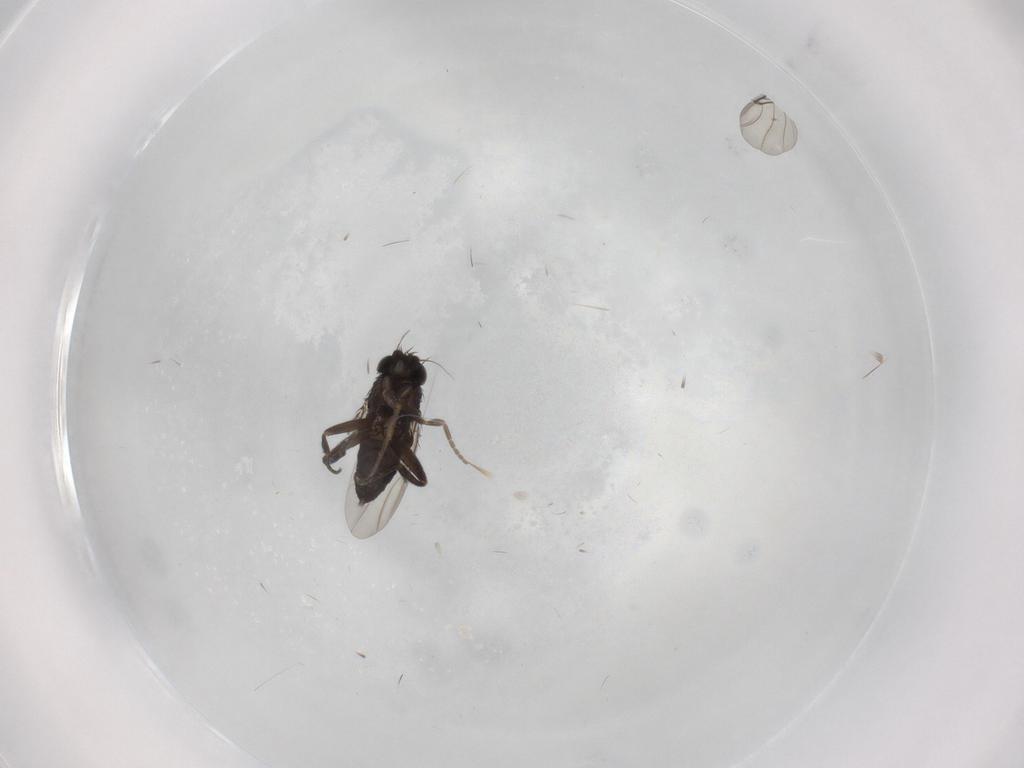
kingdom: Animalia
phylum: Arthropoda
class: Insecta
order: Diptera
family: Phoridae
